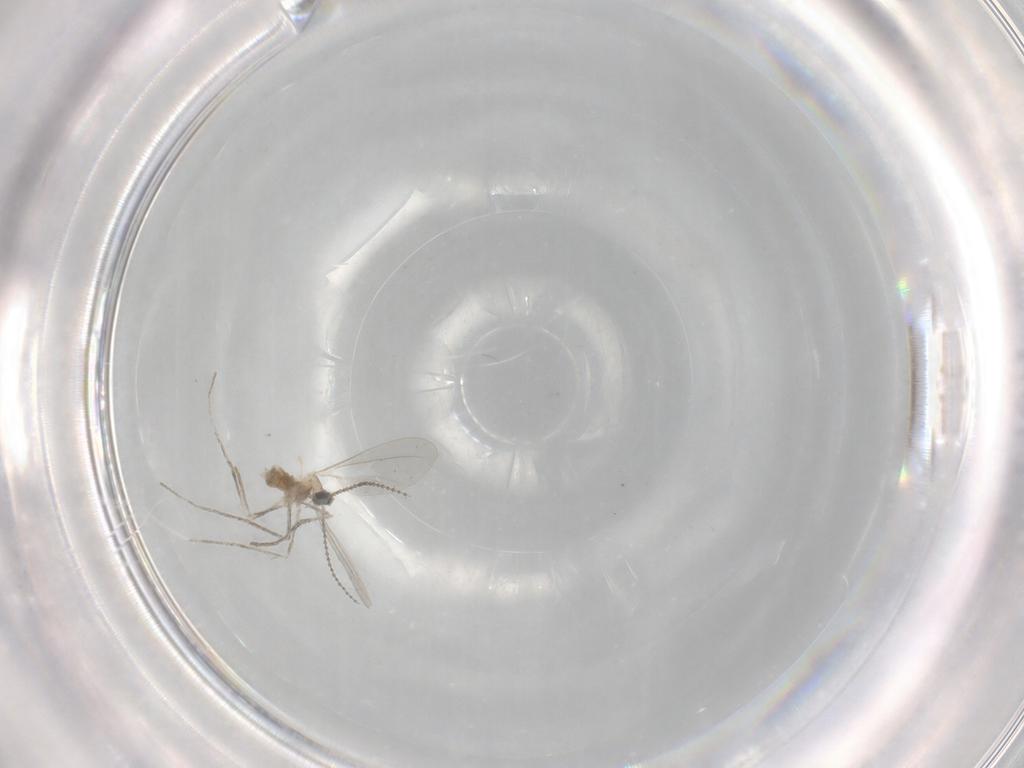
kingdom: Animalia
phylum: Arthropoda
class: Insecta
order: Diptera
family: Cecidomyiidae
